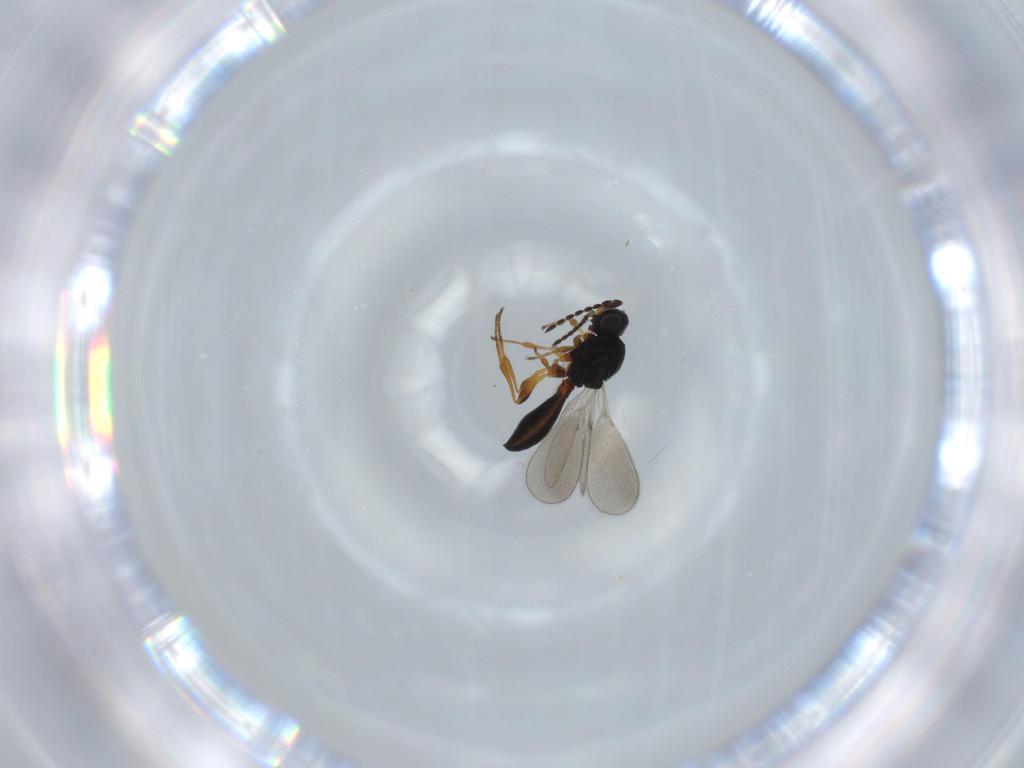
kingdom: Animalia
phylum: Arthropoda
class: Insecta
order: Hymenoptera
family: Platygastridae
